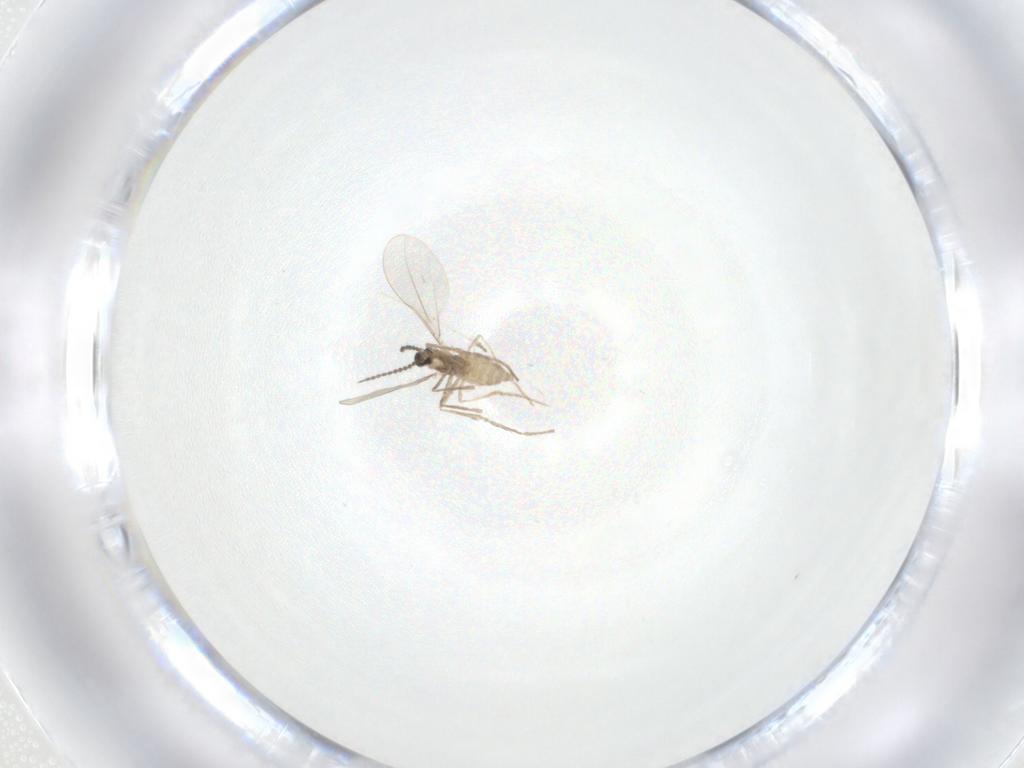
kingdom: Animalia
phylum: Arthropoda
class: Insecta
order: Diptera
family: Cecidomyiidae
